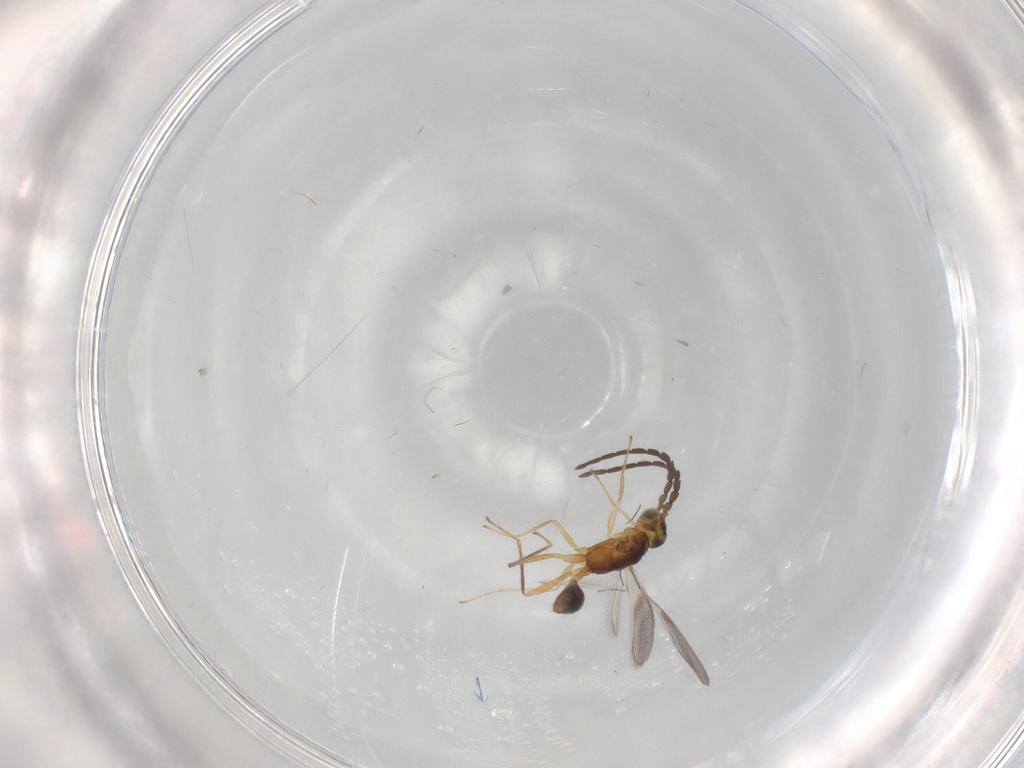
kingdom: Animalia
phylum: Arthropoda
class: Insecta
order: Hymenoptera
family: Mymaridae
